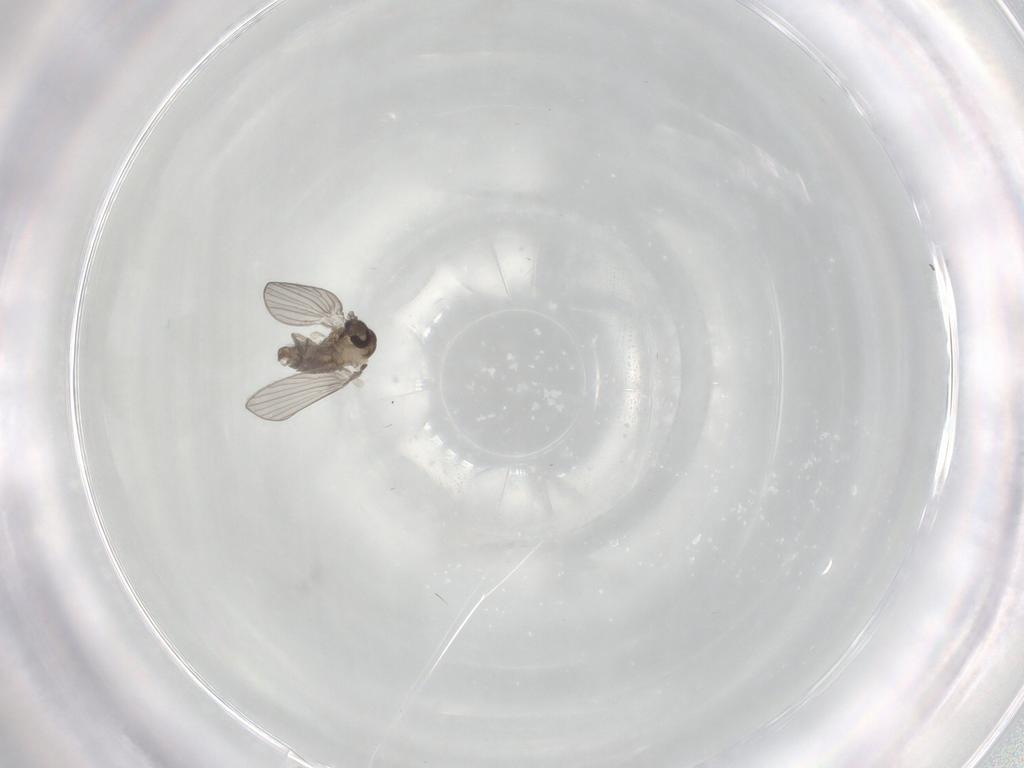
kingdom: Animalia
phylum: Arthropoda
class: Insecta
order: Diptera
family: Psychodidae
